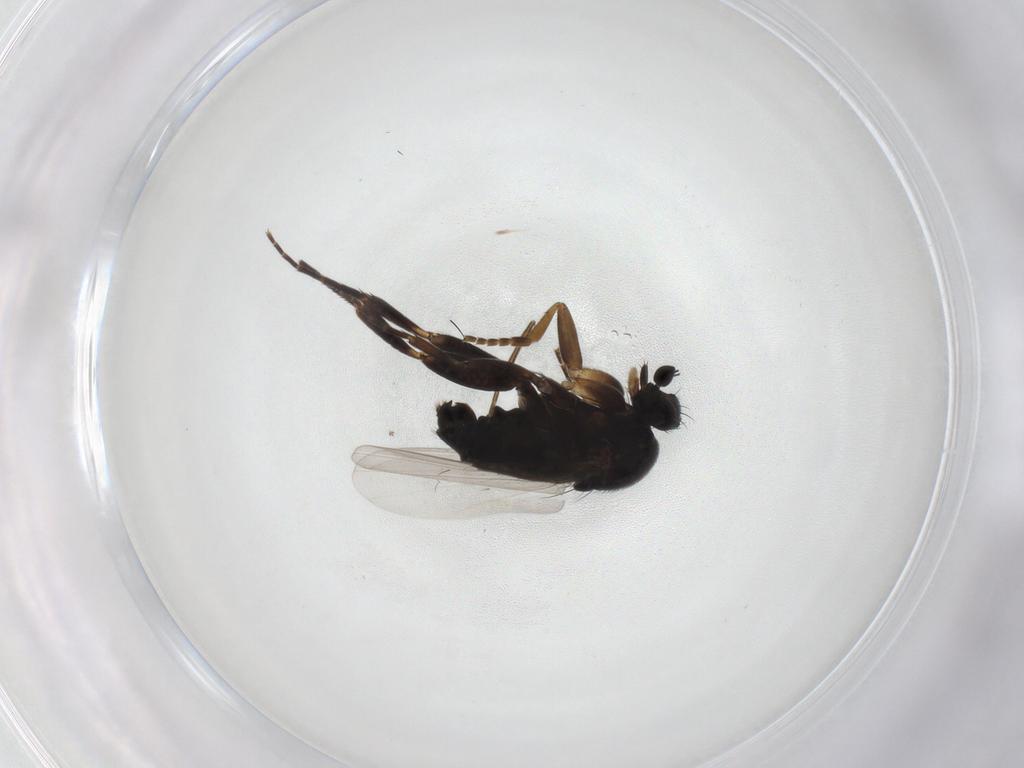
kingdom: Animalia
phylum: Arthropoda
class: Insecta
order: Diptera
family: Phoridae
